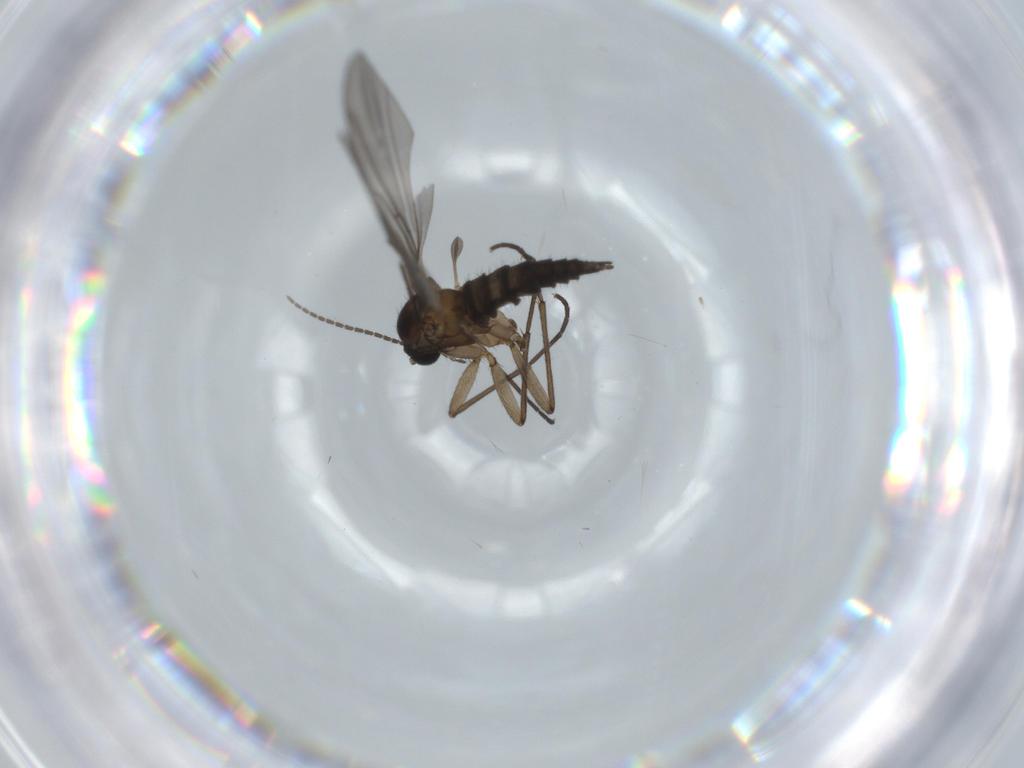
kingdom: Animalia
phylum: Arthropoda
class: Insecta
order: Diptera
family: Sciaridae
